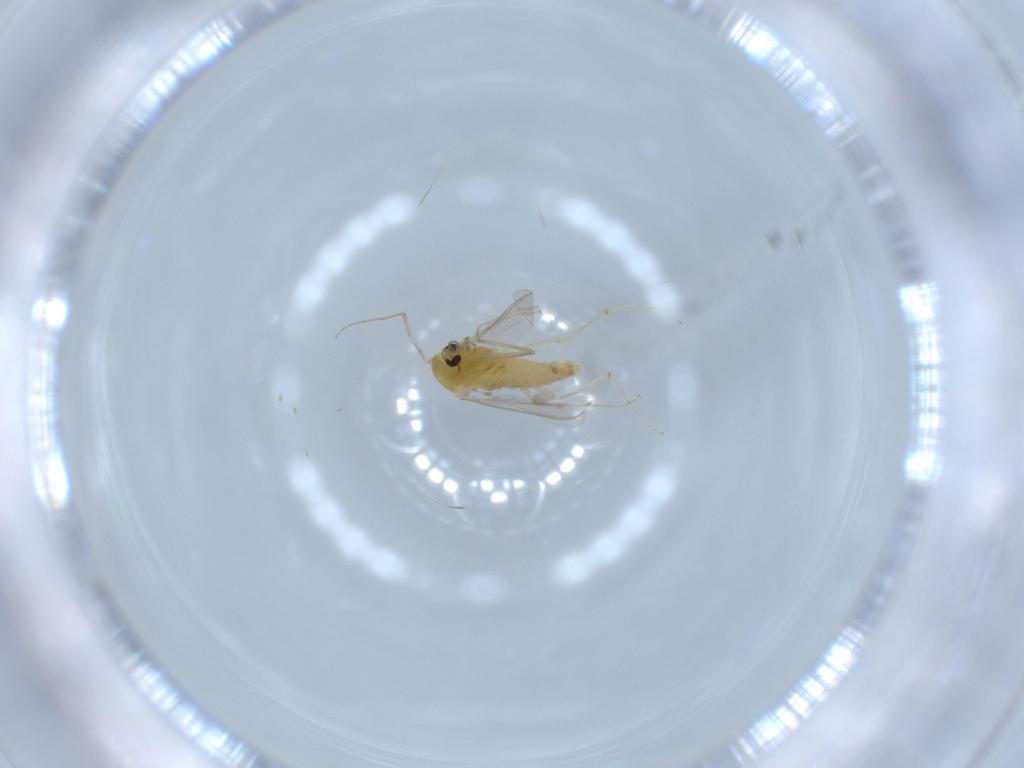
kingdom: Animalia
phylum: Arthropoda
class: Insecta
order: Diptera
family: Chironomidae
